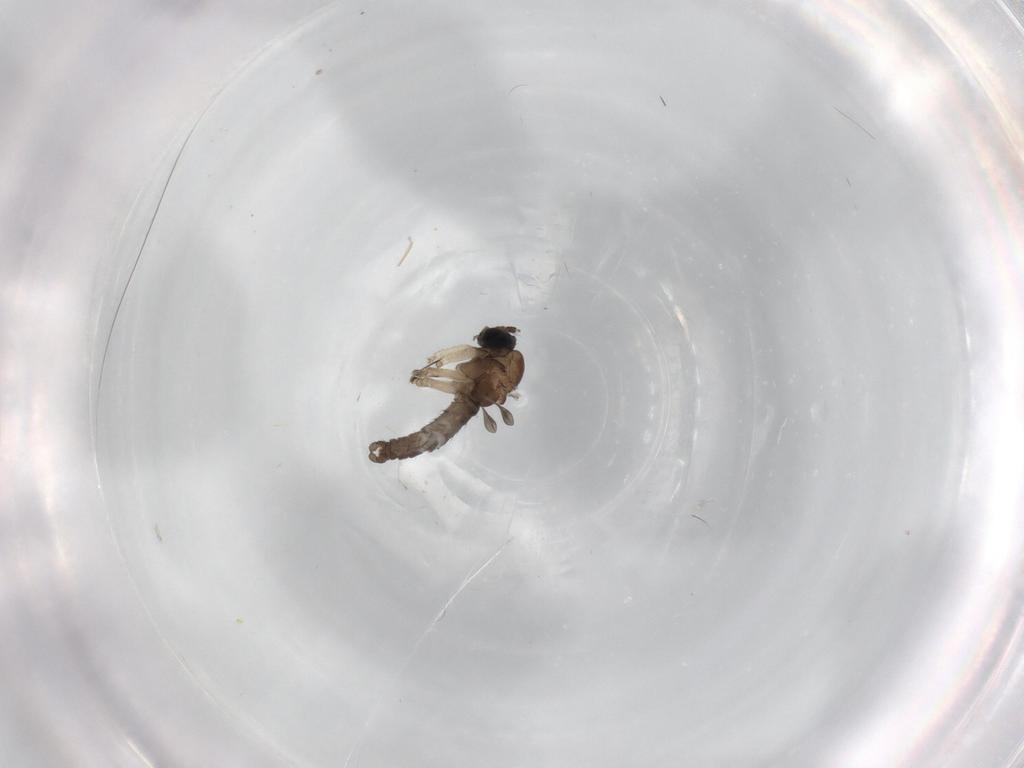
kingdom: Animalia
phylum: Arthropoda
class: Insecta
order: Diptera
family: Sciaridae
